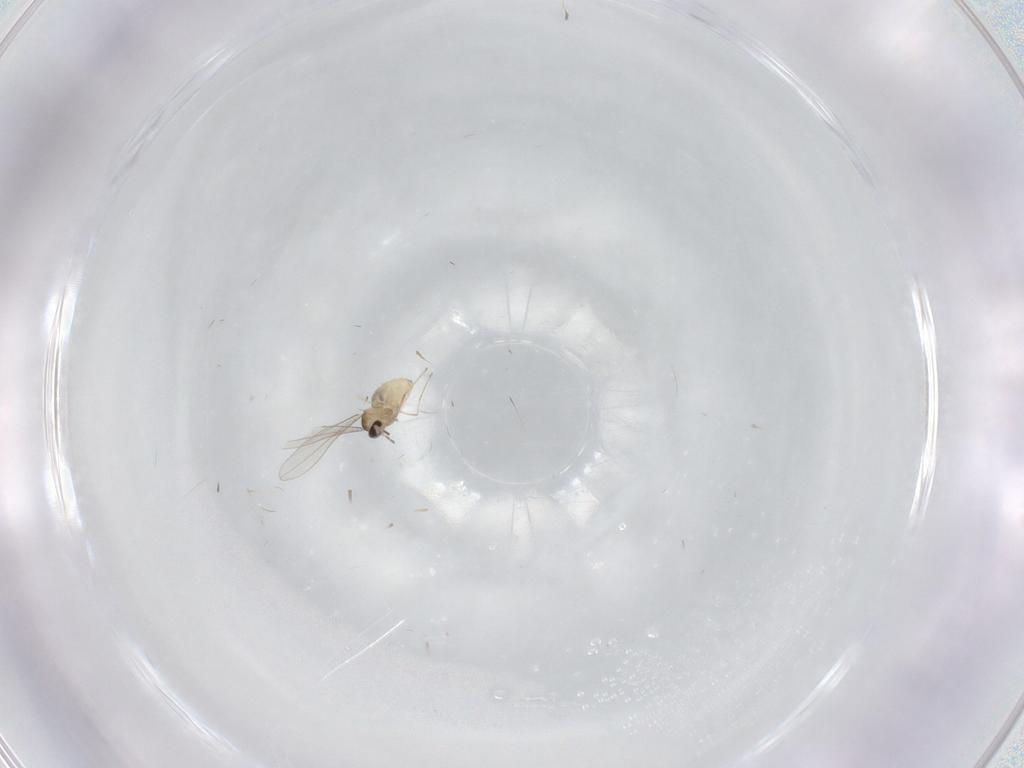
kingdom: Animalia
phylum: Arthropoda
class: Insecta
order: Diptera
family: Cecidomyiidae
